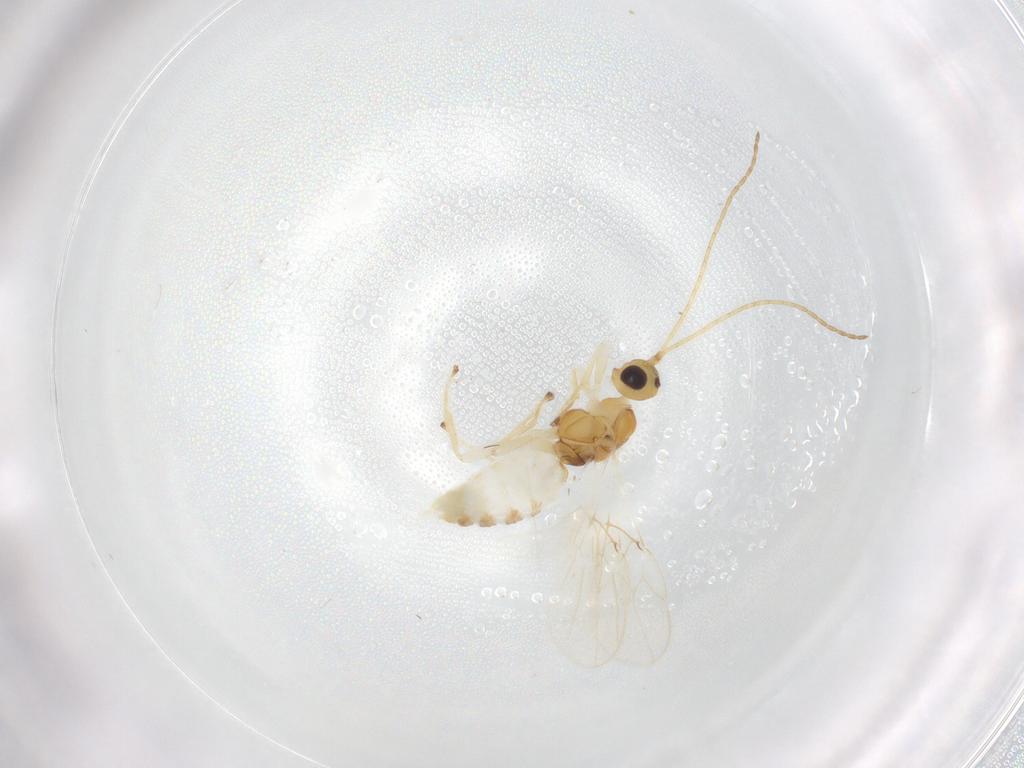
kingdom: Animalia
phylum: Arthropoda
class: Insecta
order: Hymenoptera
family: Braconidae
